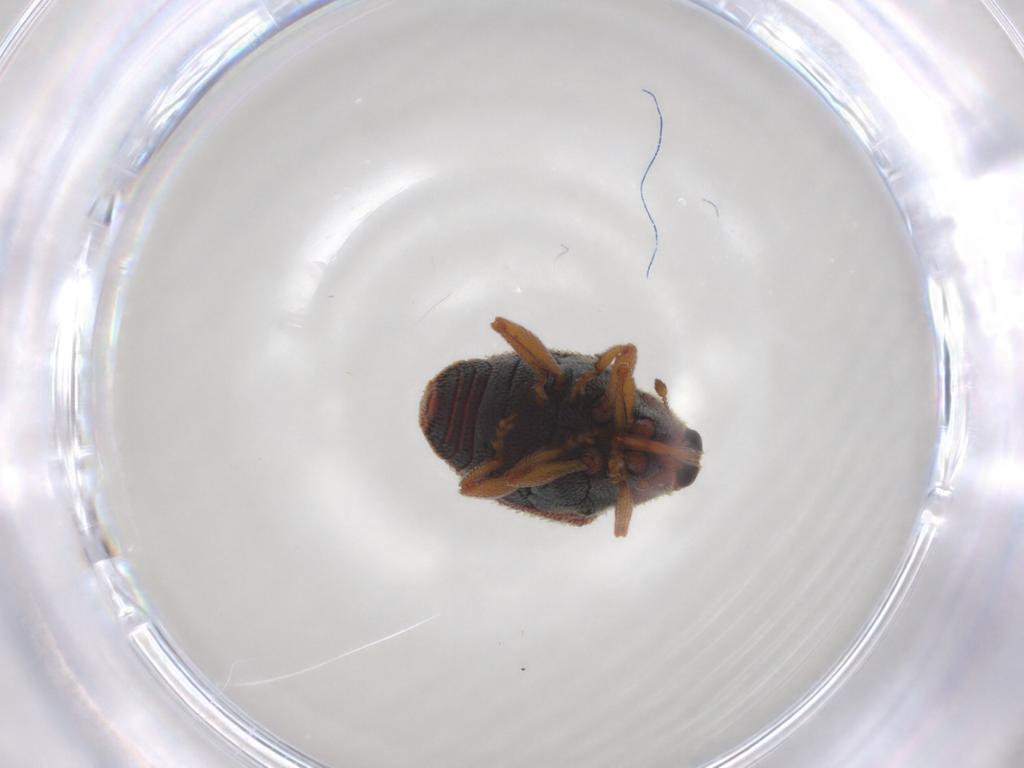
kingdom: Animalia
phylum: Arthropoda
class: Insecta
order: Coleoptera
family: Curculionidae
